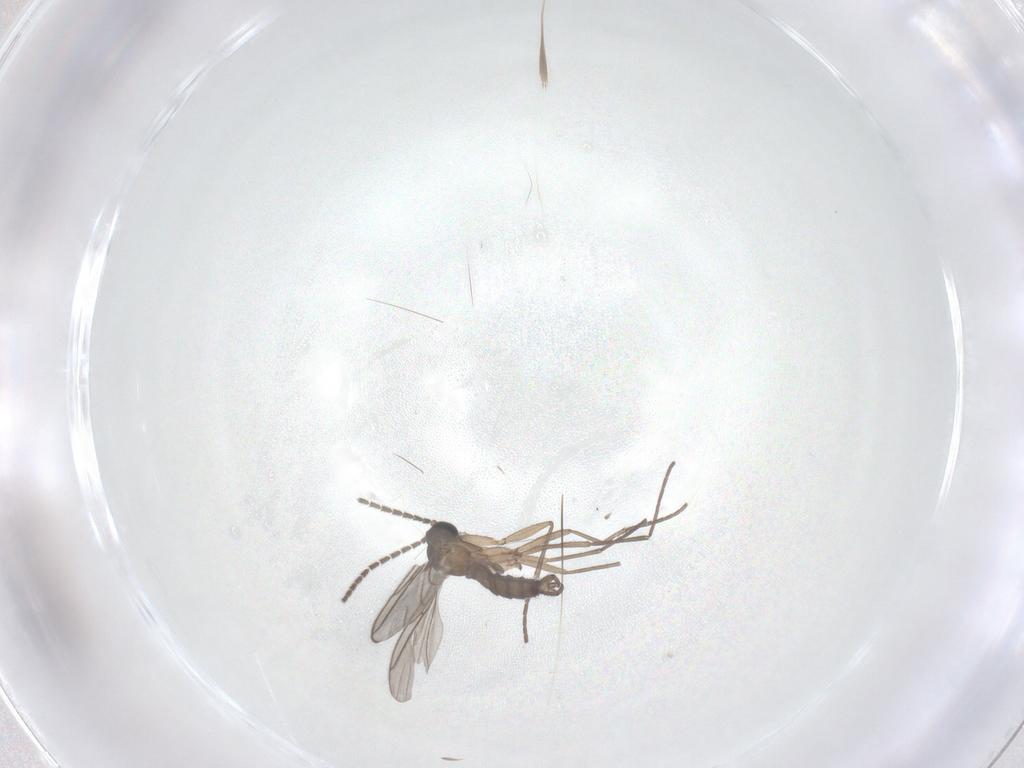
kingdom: Animalia
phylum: Arthropoda
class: Insecta
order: Diptera
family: Sciaridae
